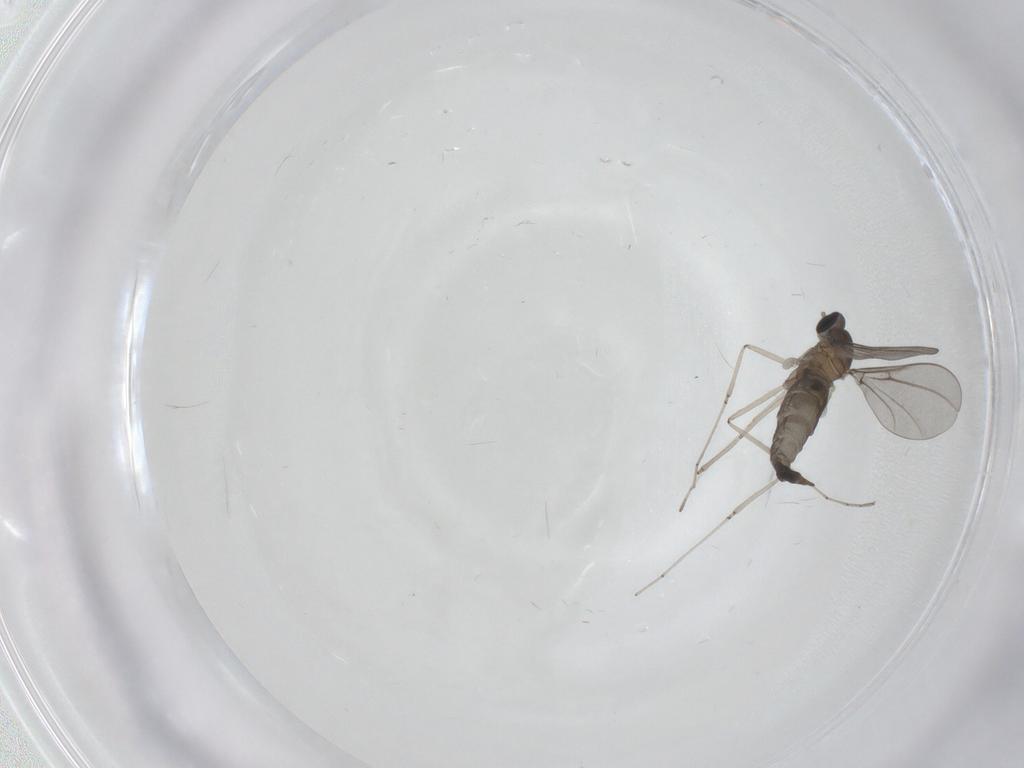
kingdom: Animalia
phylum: Arthropoda
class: Insecta
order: Diptera
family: Cecidomyiidae
